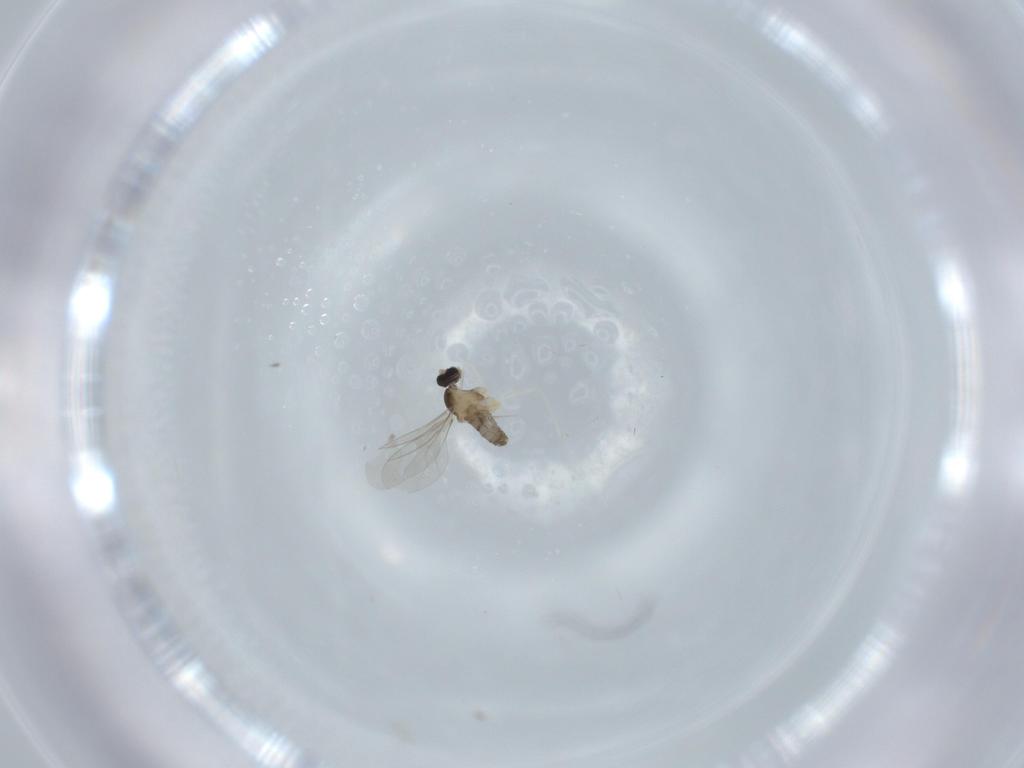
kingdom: Animalia
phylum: Arthropoda
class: Insecta
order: Diptera
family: Cecidomyiidae
